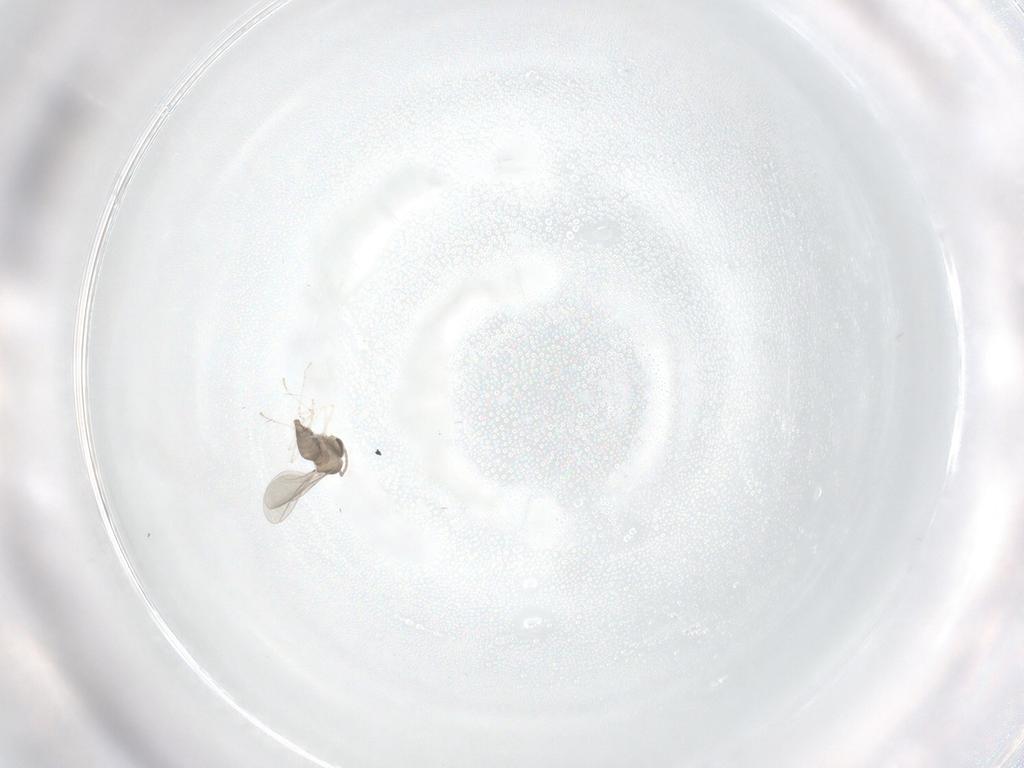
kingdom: Animalia
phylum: Arthropoda
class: Insecta
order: Diptera
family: Cecidomyiidae
